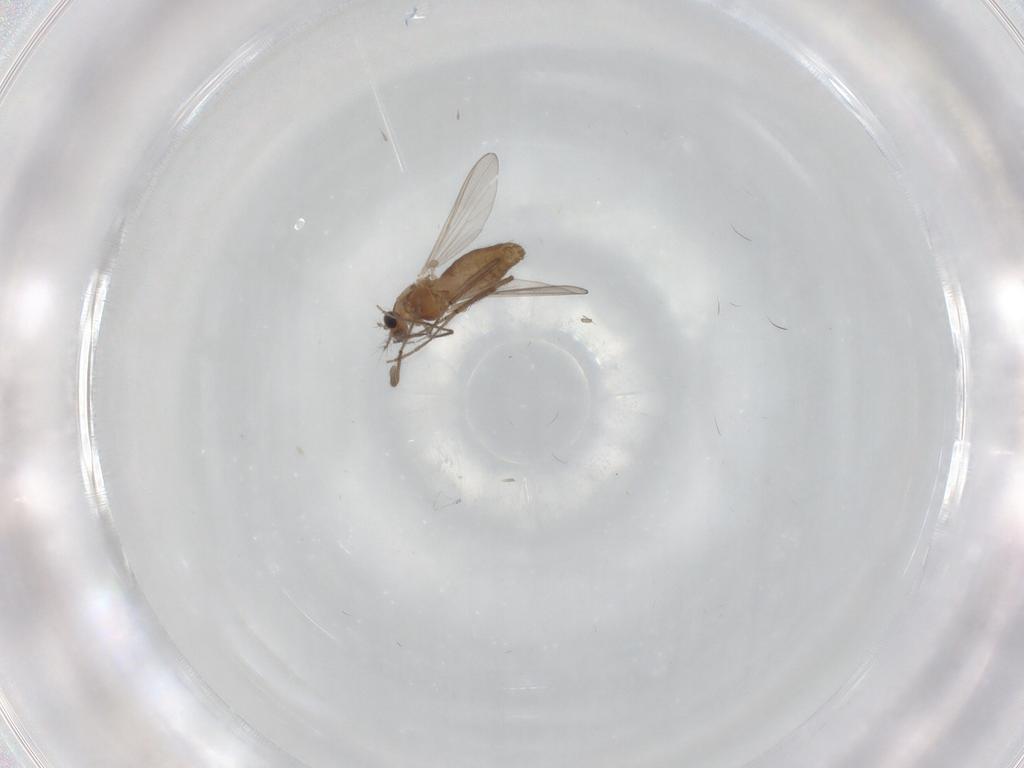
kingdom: Animalia
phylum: Arthropoda
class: Insecta
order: Diptera
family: Chironomidae
